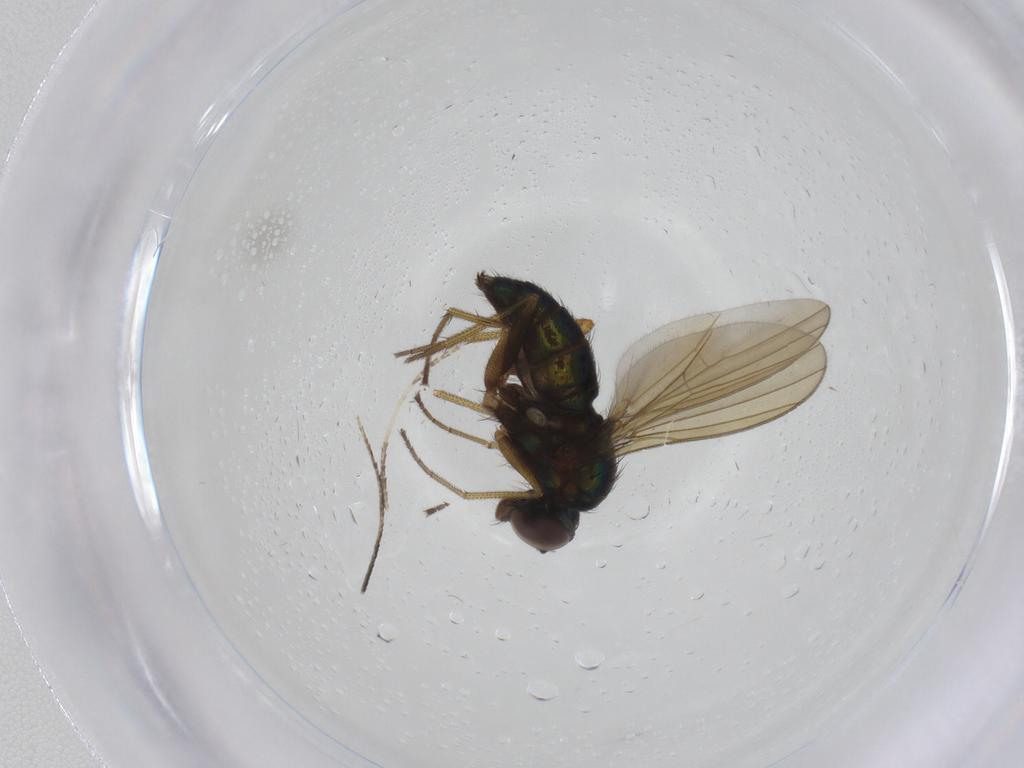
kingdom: Animalia
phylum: Arthropoda
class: Insecta
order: Diptera
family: Dolichopodidae
